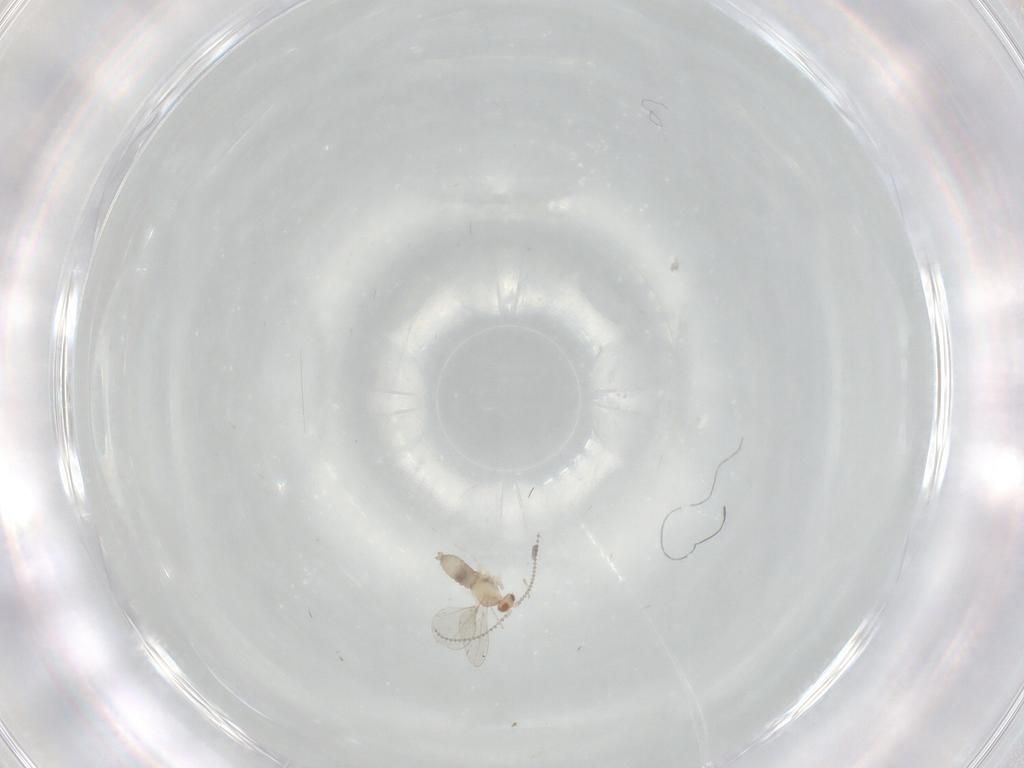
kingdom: Animalia
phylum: Arthropoda
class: Insecta
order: Diptera
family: Cecidomyiidae
